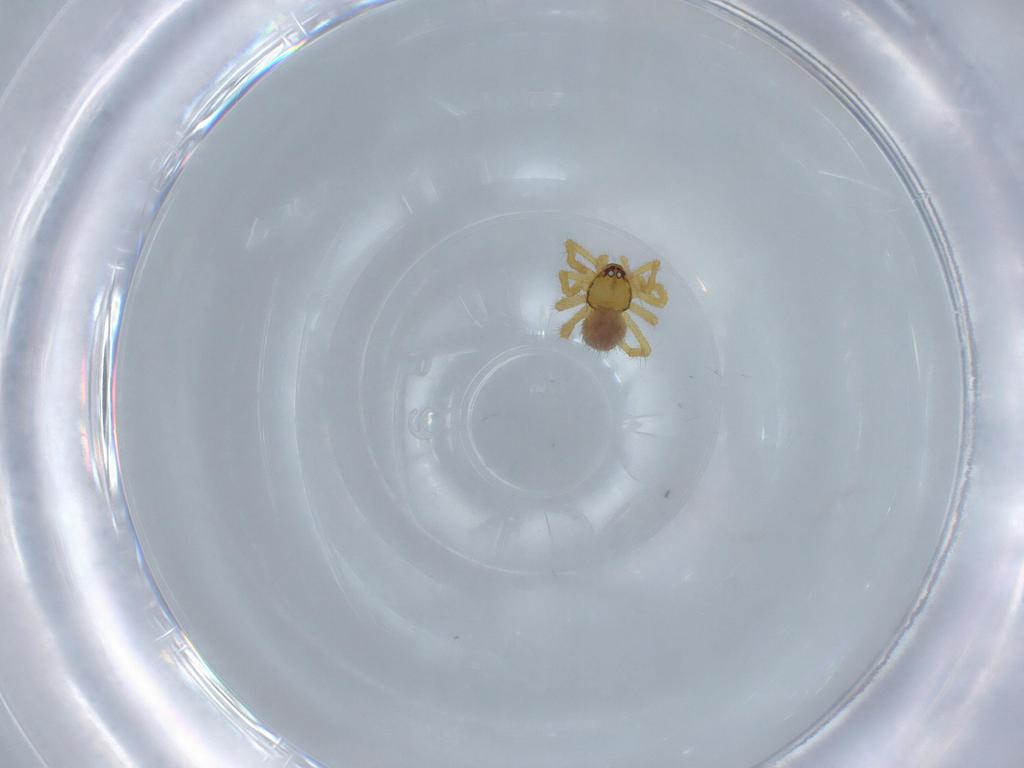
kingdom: Animalia
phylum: Arthropoda
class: Arachnida
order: Araneae
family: Theridiidae
